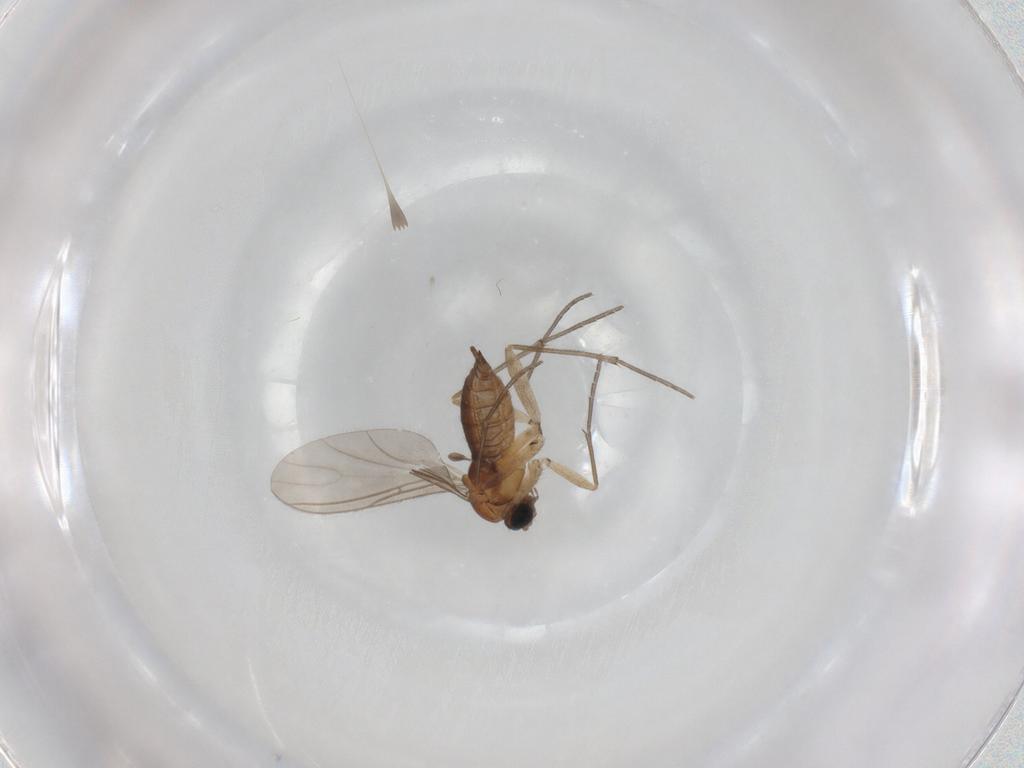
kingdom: Animalia
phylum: Arthropoda
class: Insecta
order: Diptera
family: Sciaridae
